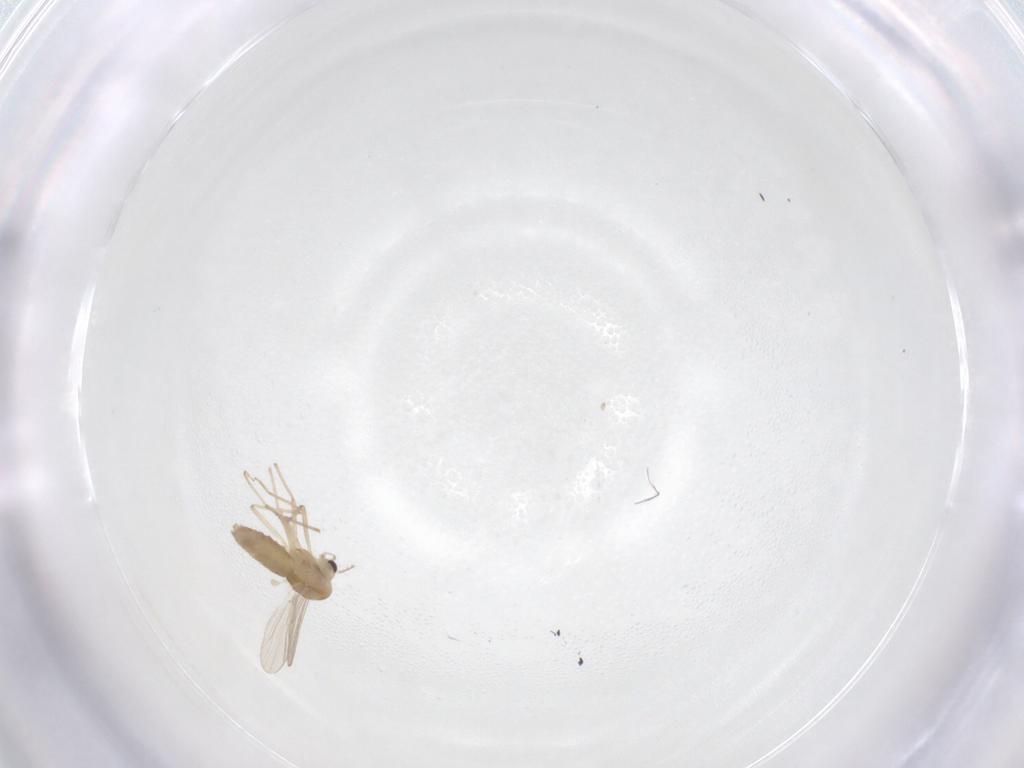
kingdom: Animalia
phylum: Arthropoda
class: Insecta
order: Diptera
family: Chironomidae
